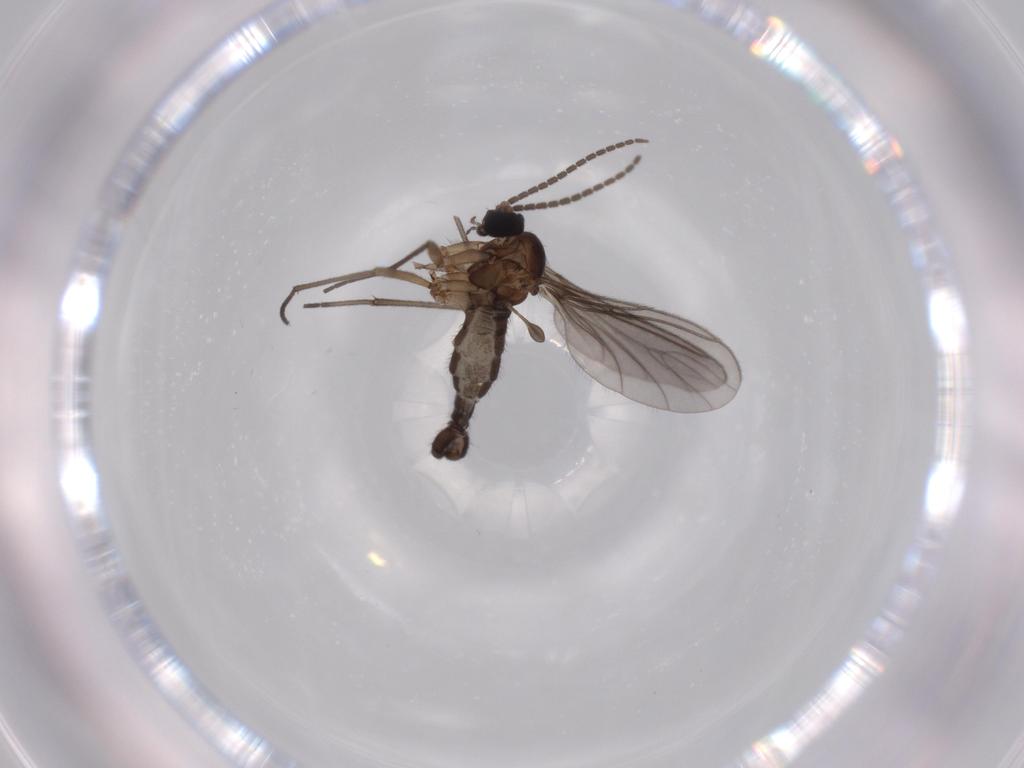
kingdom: Animalia
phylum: Arthropoda
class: Insecta
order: Diptera
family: Sciaridae
